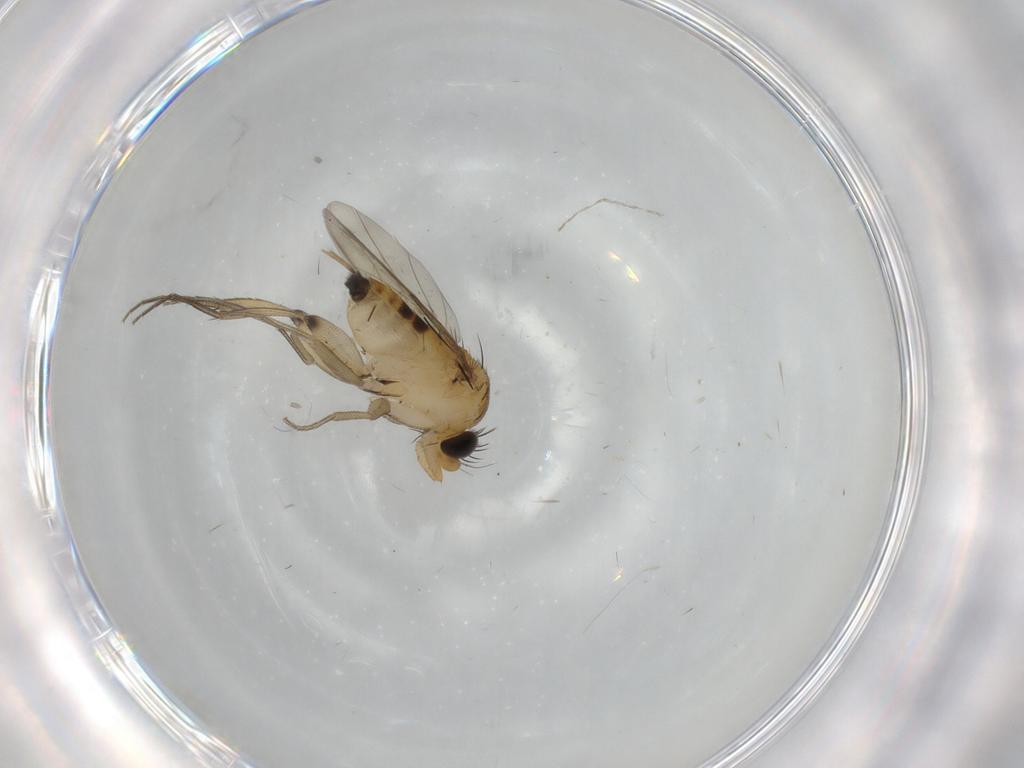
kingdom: Animalia
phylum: Arthropoda
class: Insecta
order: Diptera
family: Phoridae
